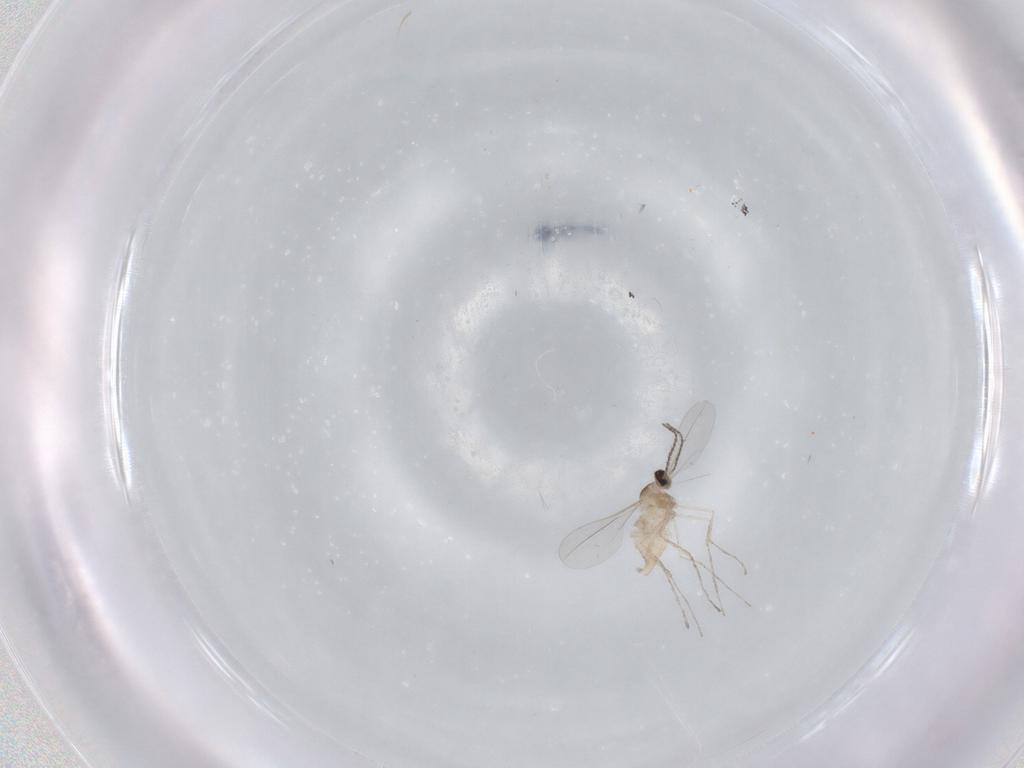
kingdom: Animalia
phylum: Arthropoda
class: Insecta
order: Diptera
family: Cecidomyiidae
